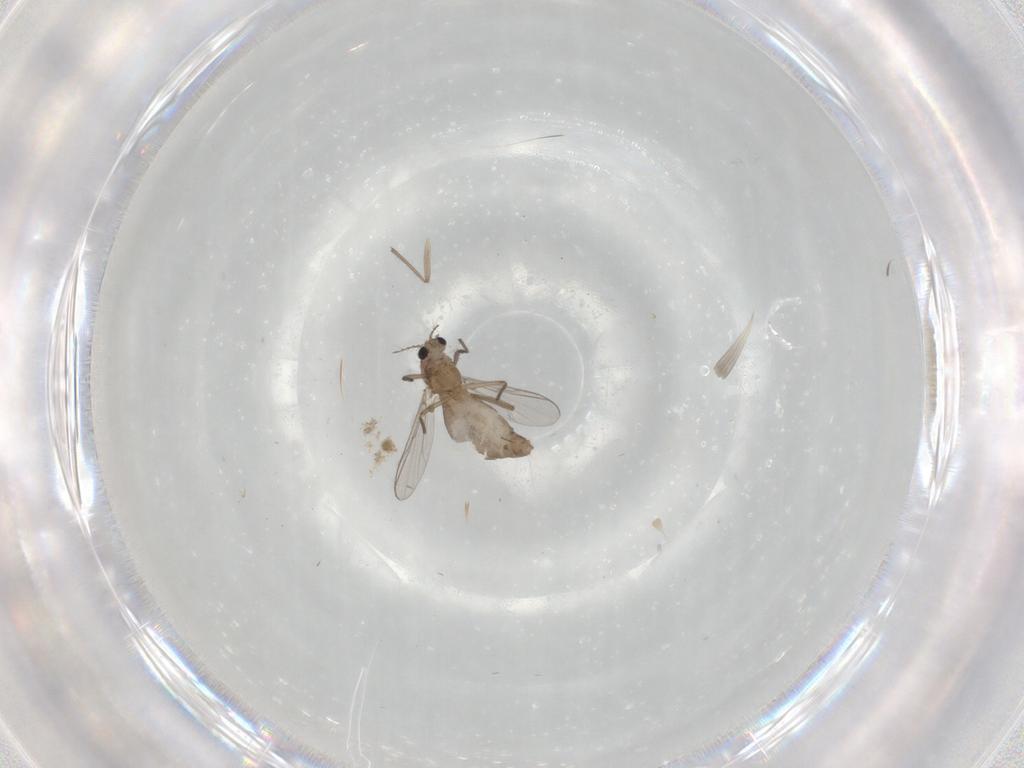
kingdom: Animalia
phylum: Arthropoda
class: Insecta
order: Diptera
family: Chironomidae
